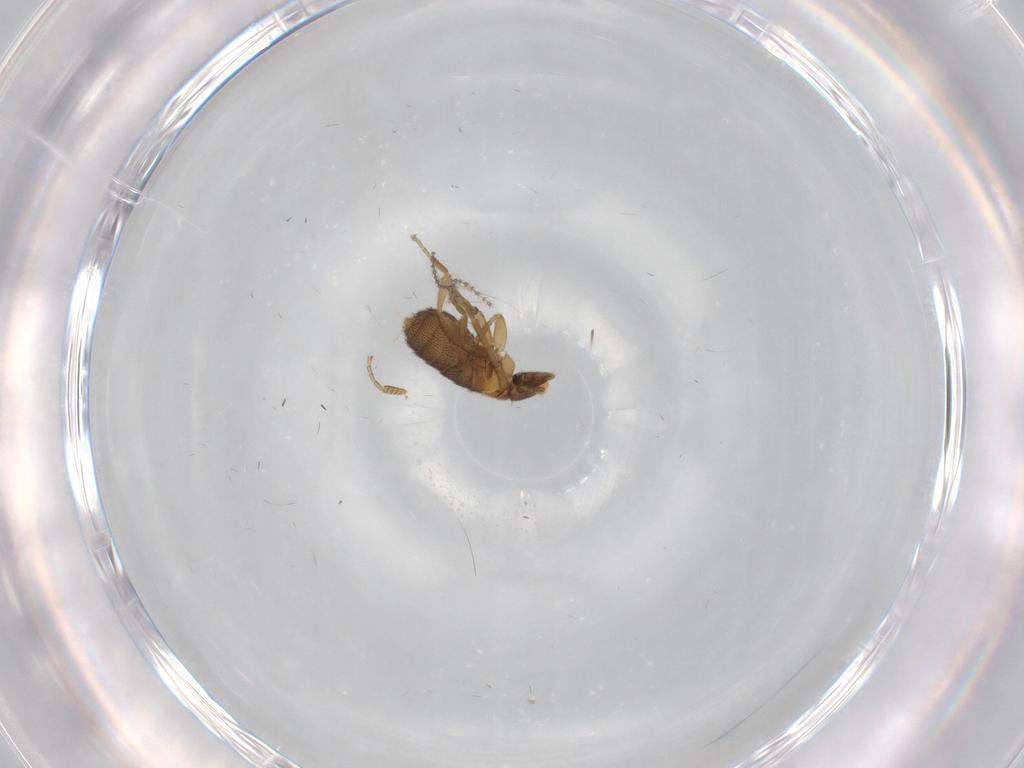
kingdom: Animalia
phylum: Arthropoda
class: Insecta
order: Diptera
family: Cecidomyiidae
